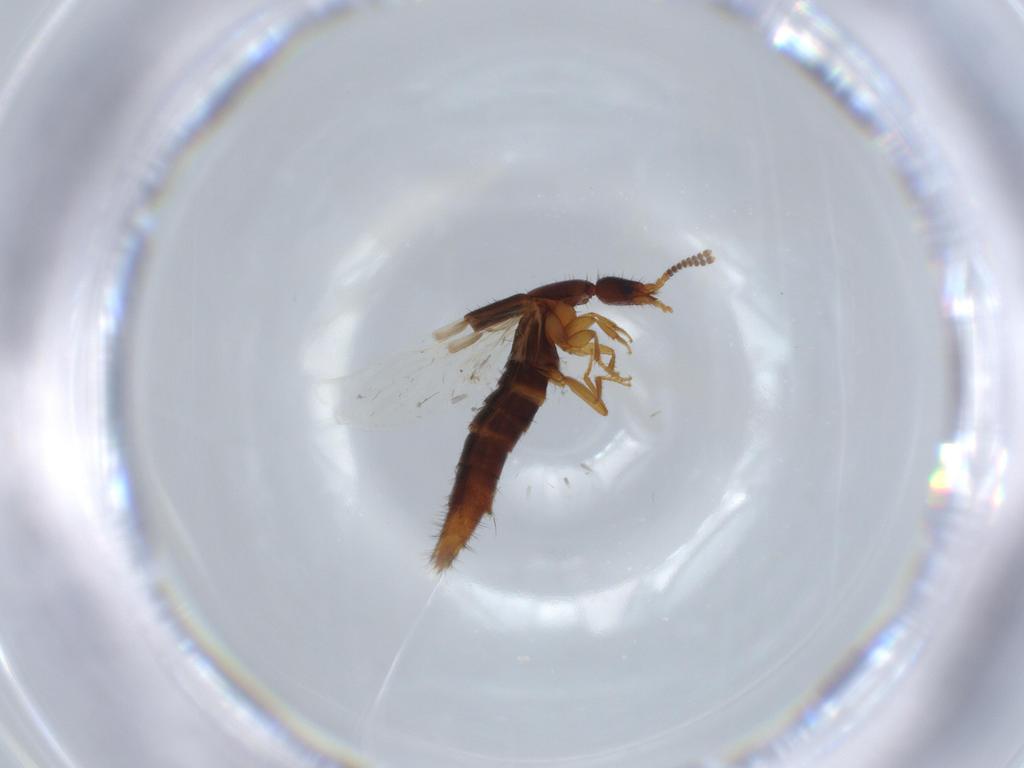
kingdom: Animalia
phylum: Arthropoda
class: Insecta
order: Coleoptera
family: Staphylinidae
